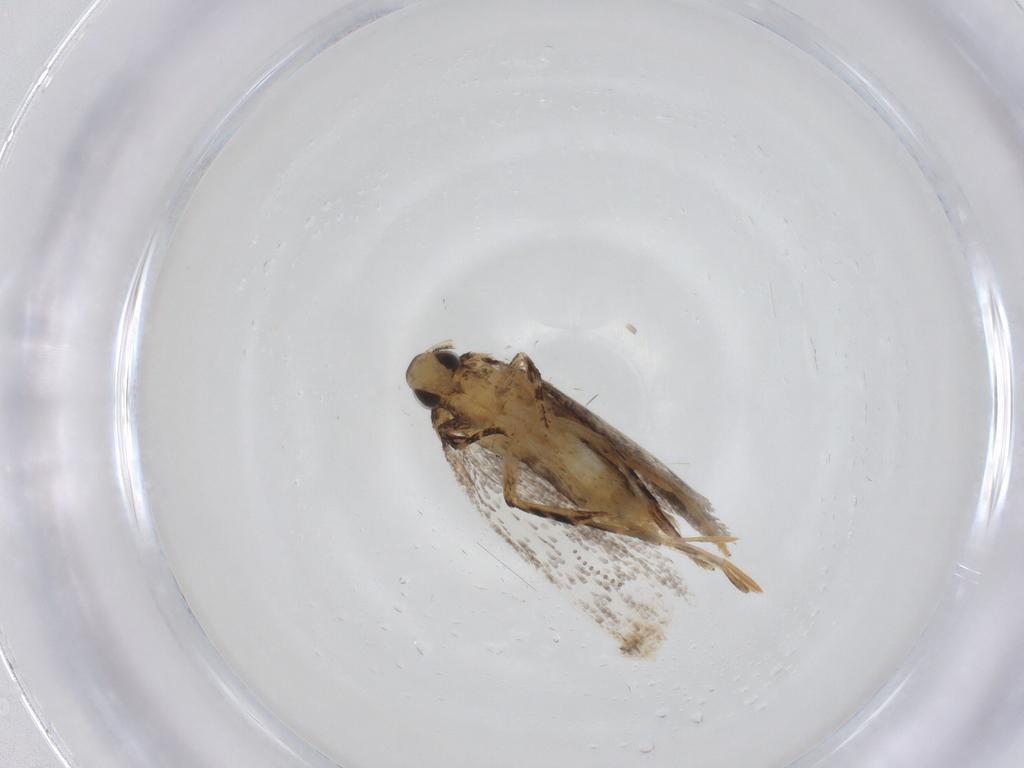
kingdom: Animalia
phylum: Arthropoda
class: Insecta
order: Lepidoptera
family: Oecophoridae
